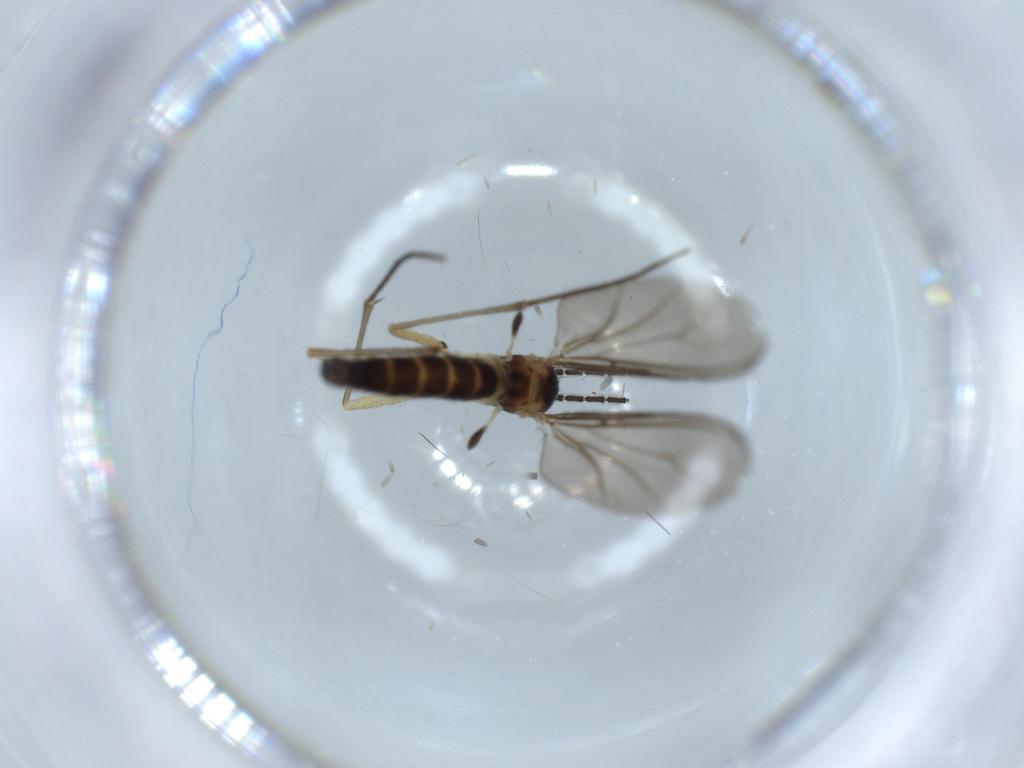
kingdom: Animalia
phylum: Arthropoda
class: Insecta
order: Diptera
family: Sciaridae
